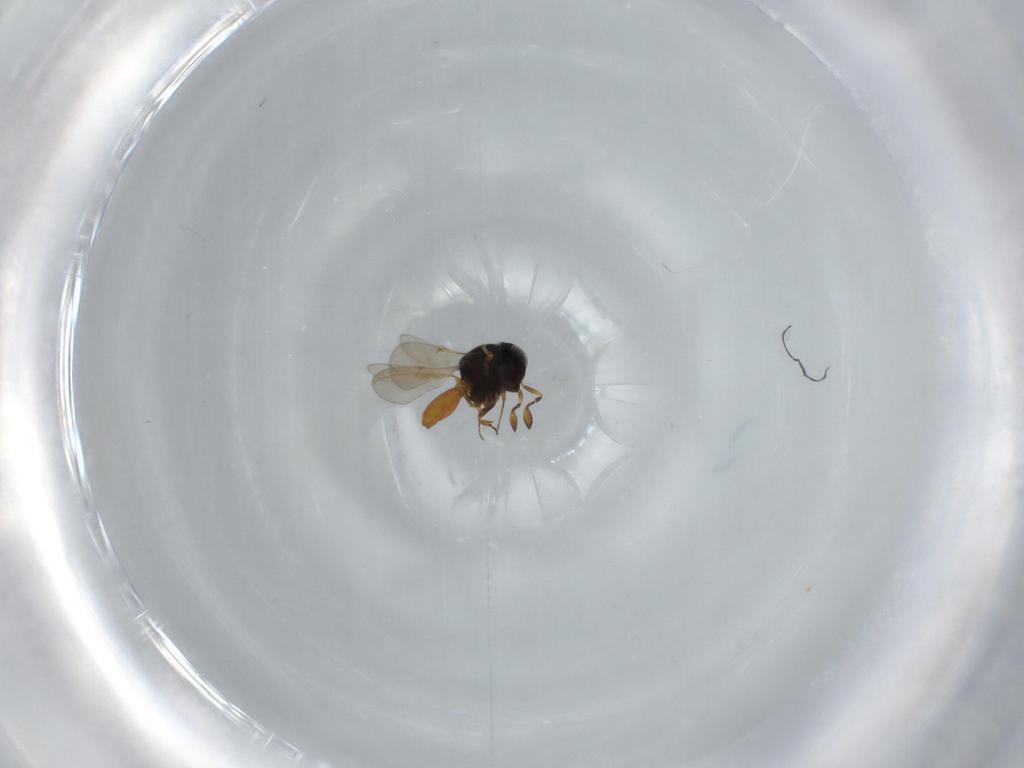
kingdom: Animalia
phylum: Arthropoda
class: Insecta
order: Hymenoptera
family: Scelionidae
